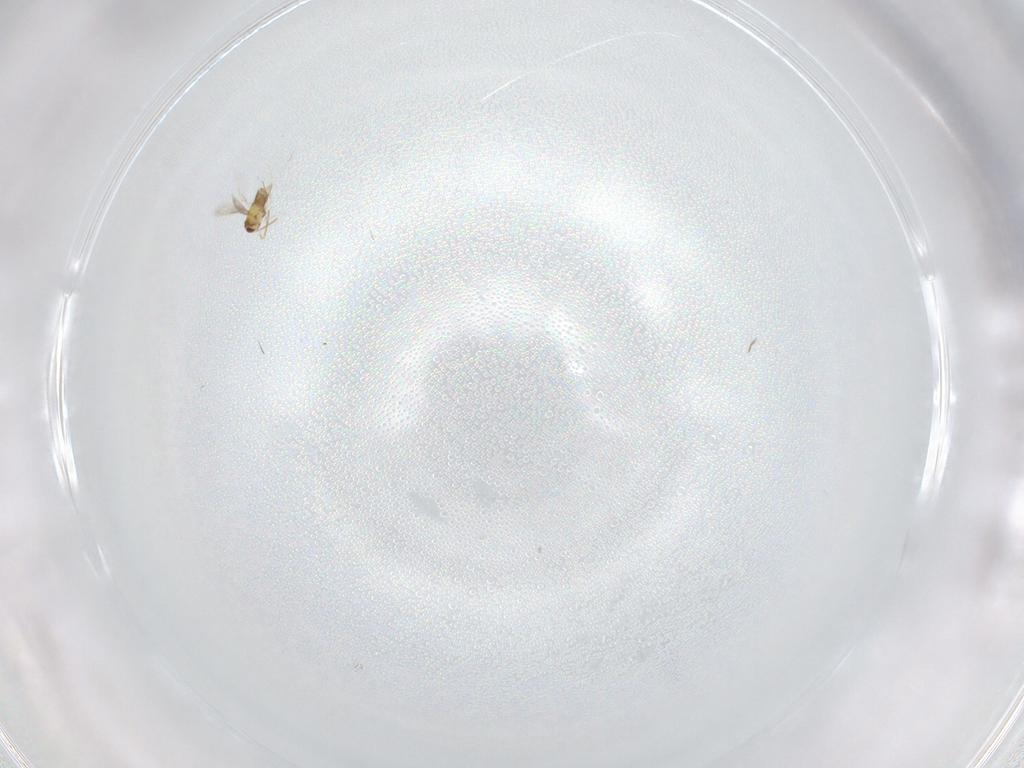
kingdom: Animalia
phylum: Arthropoda
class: Insecta
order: Hymenoptera
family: Aphelinidae
